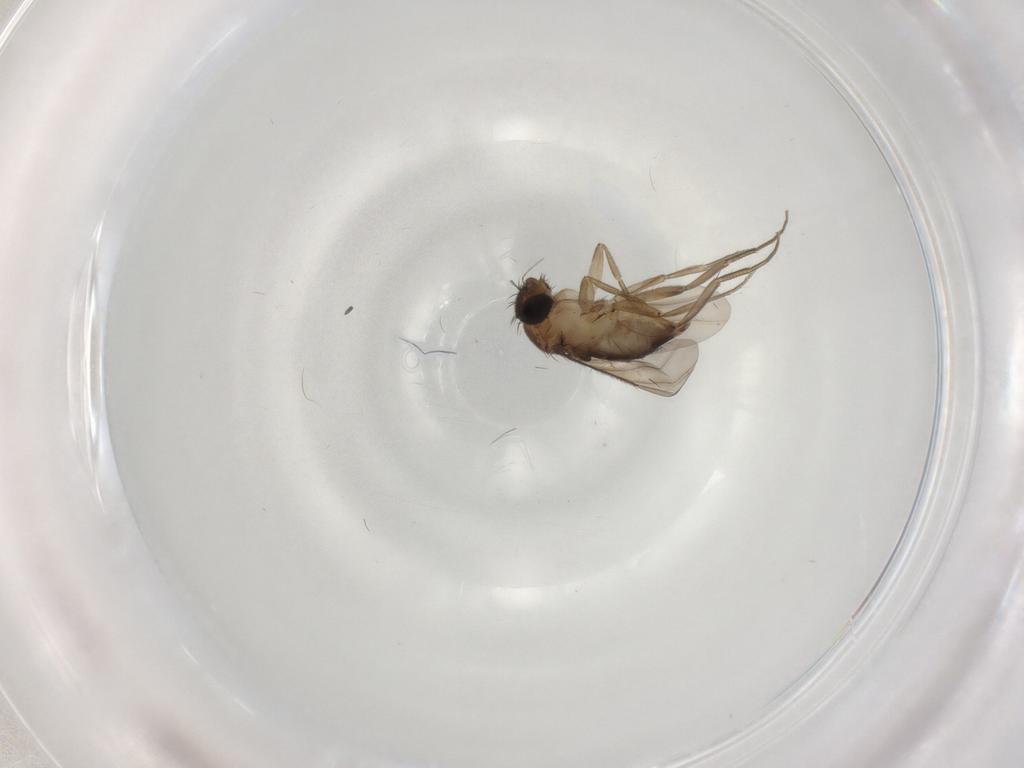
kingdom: Animalia
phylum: Arthropoda
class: Insecta
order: Diptera
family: Phoridae
